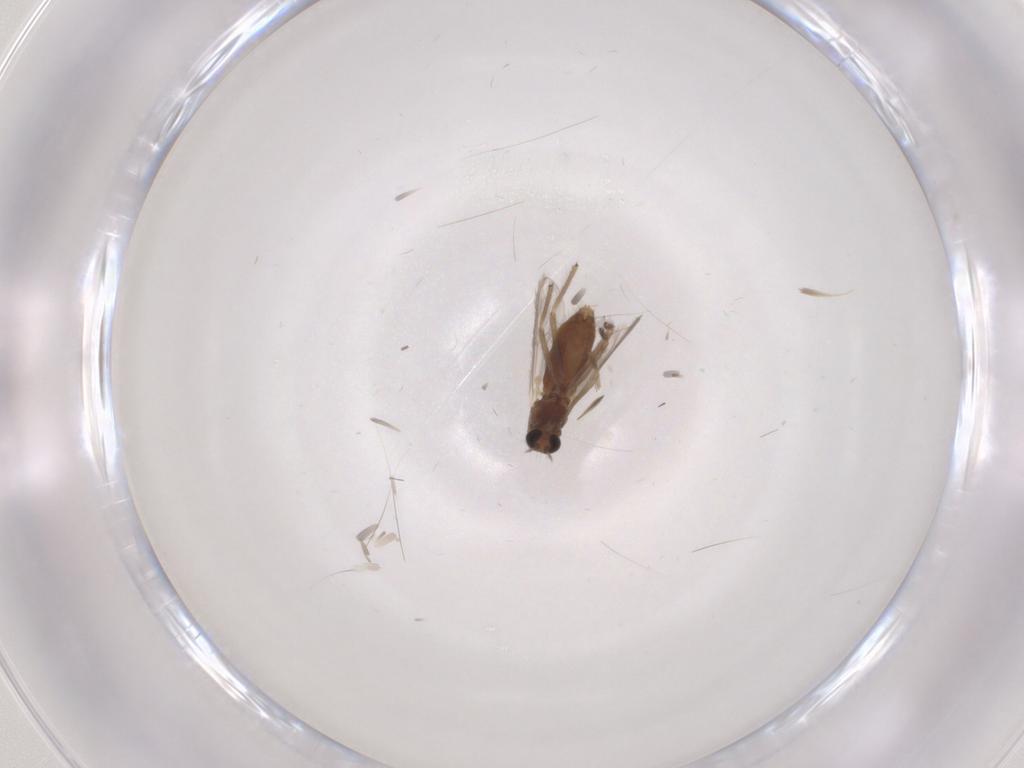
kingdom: Animalia
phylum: Arthropoda
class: Insecta
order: Diptera
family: Chironomidae
